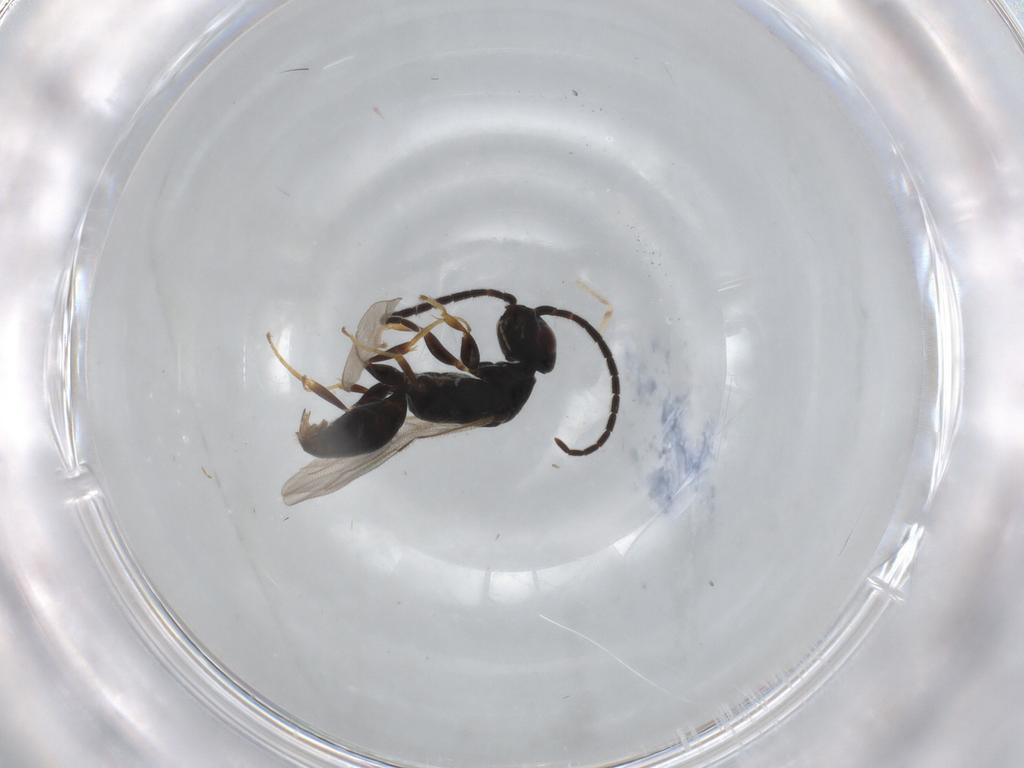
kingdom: Animalia
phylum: Arthropoda
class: Insecta
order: Hymenoptera
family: Bethylidae
